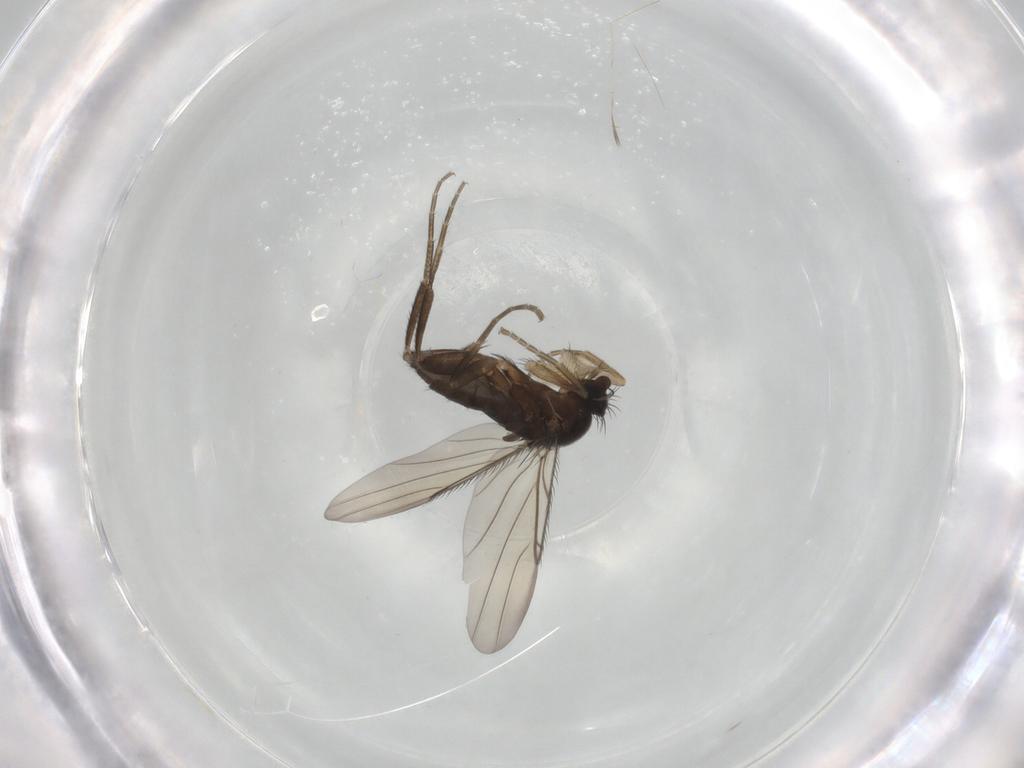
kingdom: Animalia
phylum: Arthropoda
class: Insecta
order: Diptera
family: Phoridae
